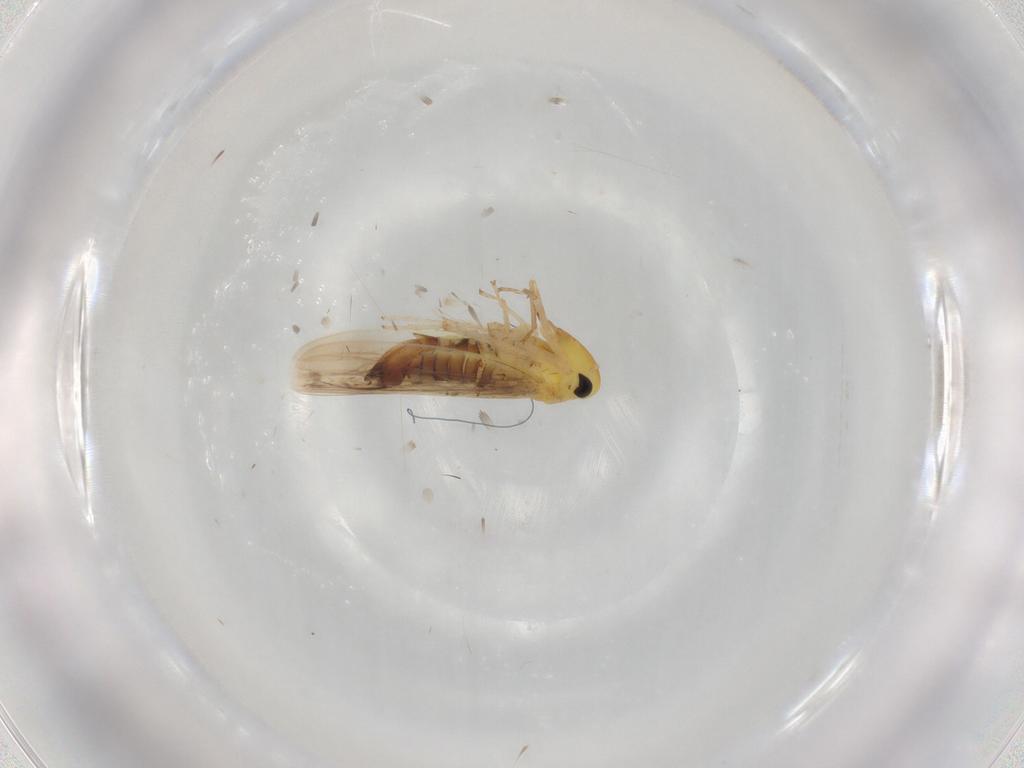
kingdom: Animalia
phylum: Arthropoda
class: Insecta
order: Hemiptera
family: Cicadellidae
